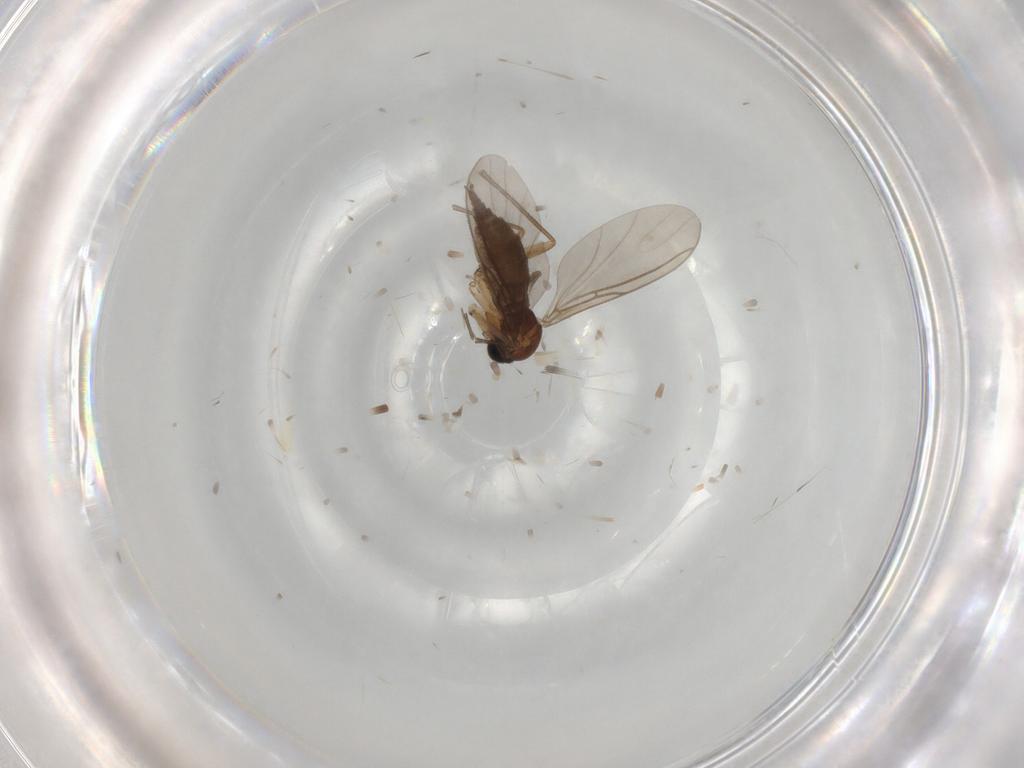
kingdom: Animalia
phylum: Arthropoda
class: Insecta
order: Diptera
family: Sciaridae
